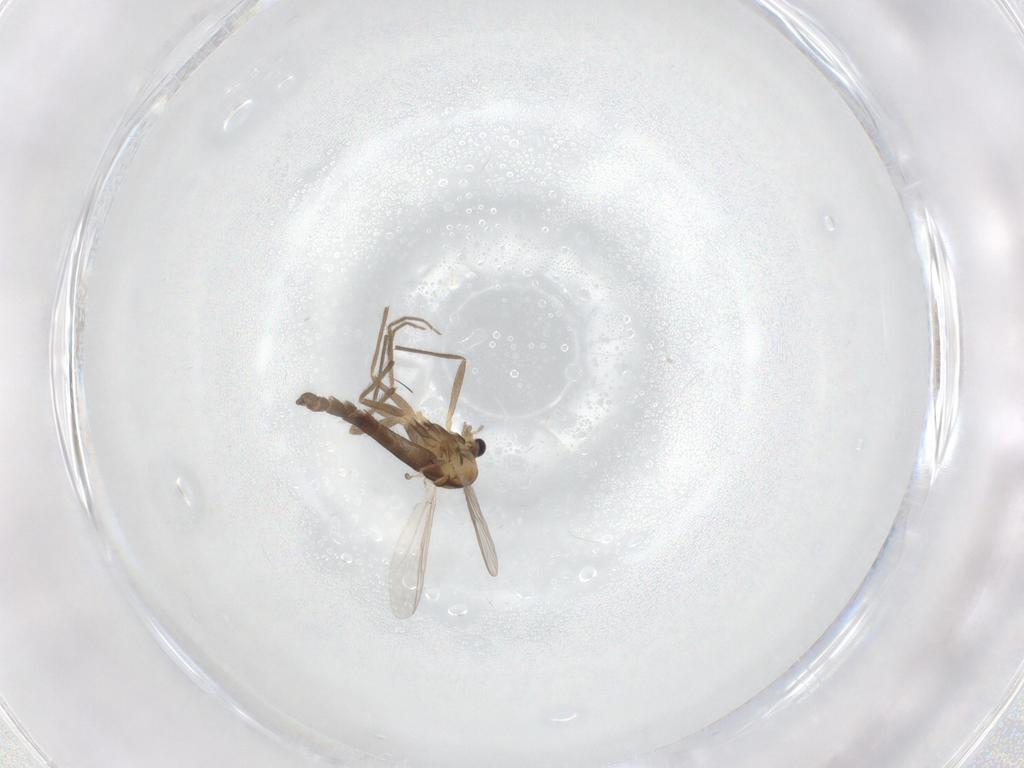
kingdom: Animalia
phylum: Arthropoda
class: Insecta
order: Diptera
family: Chironomidae
